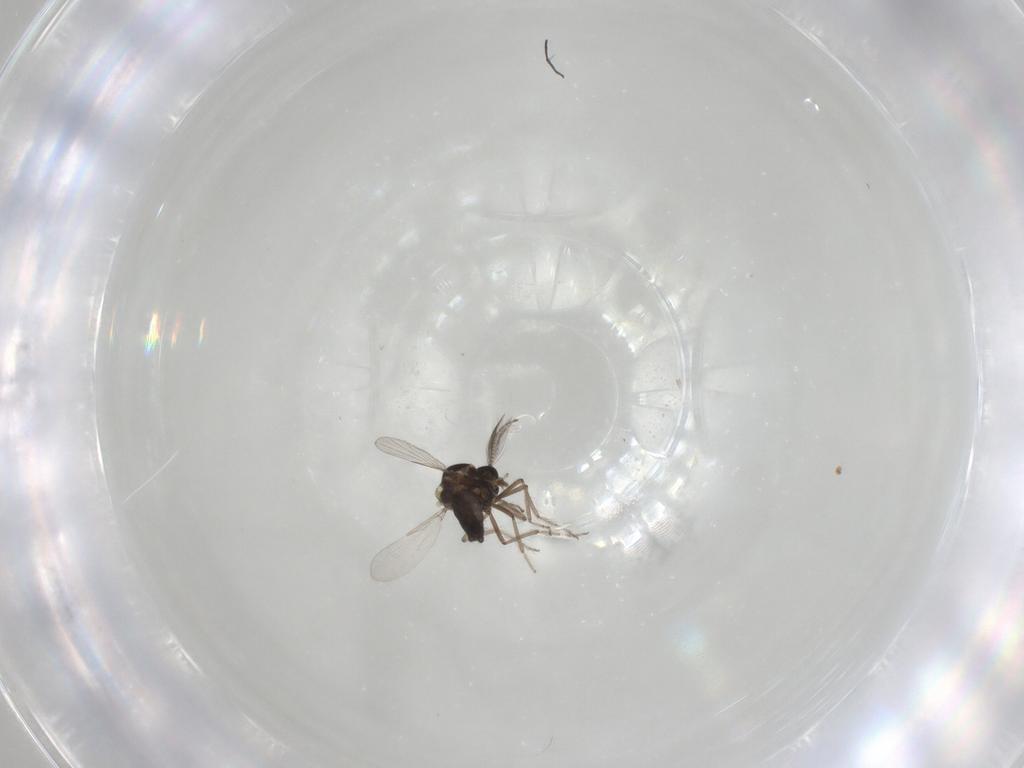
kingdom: Animalia
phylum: Arthropoda
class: Insecta
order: Diptera
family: Ceratopogonidae
